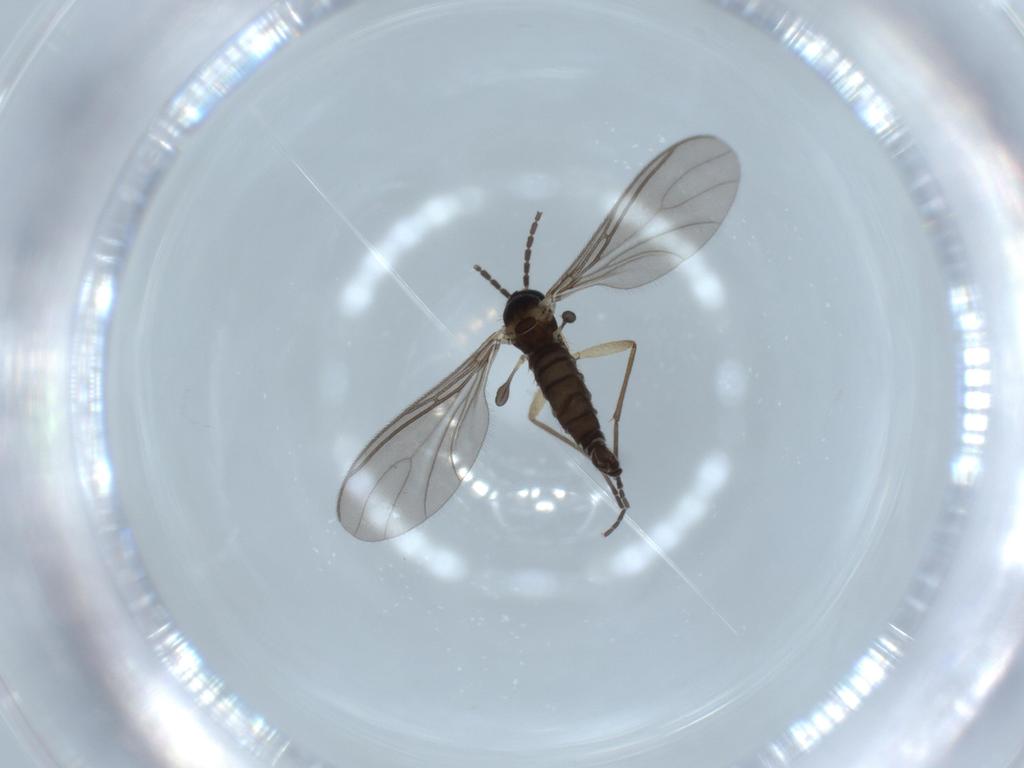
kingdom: Animalia
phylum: Arthropoda
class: Insecta
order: Diptera
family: Sciaridae
